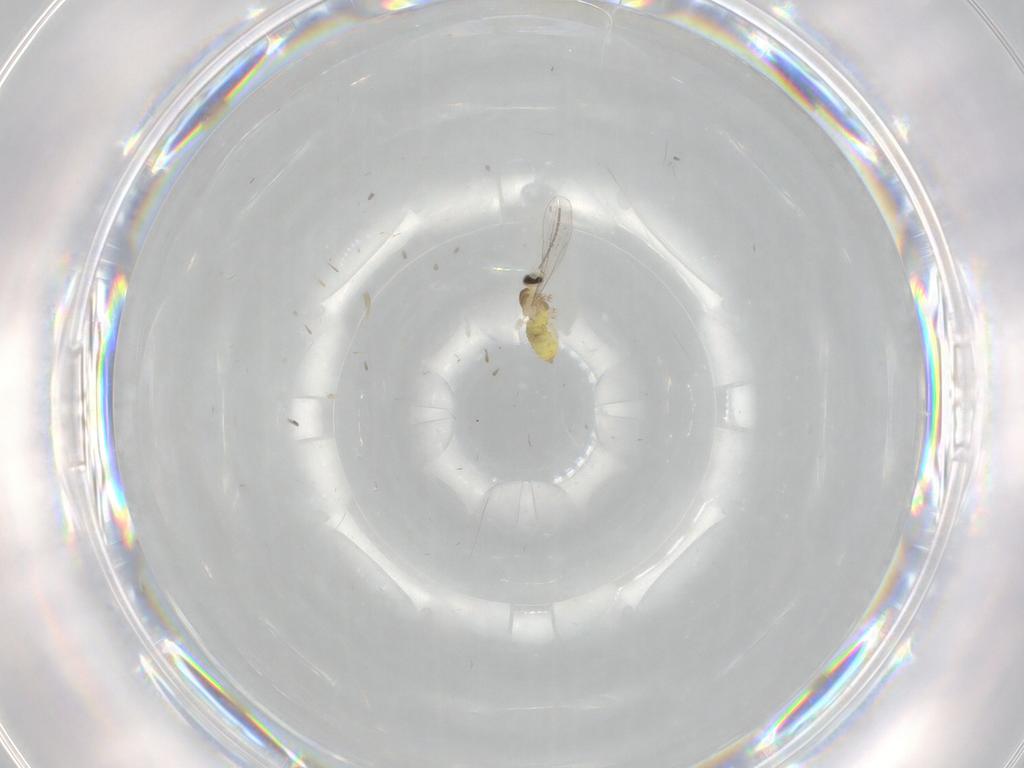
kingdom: Animalia
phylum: Arthropoda
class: Insecta
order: Diptera
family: Cecidomyiidae
